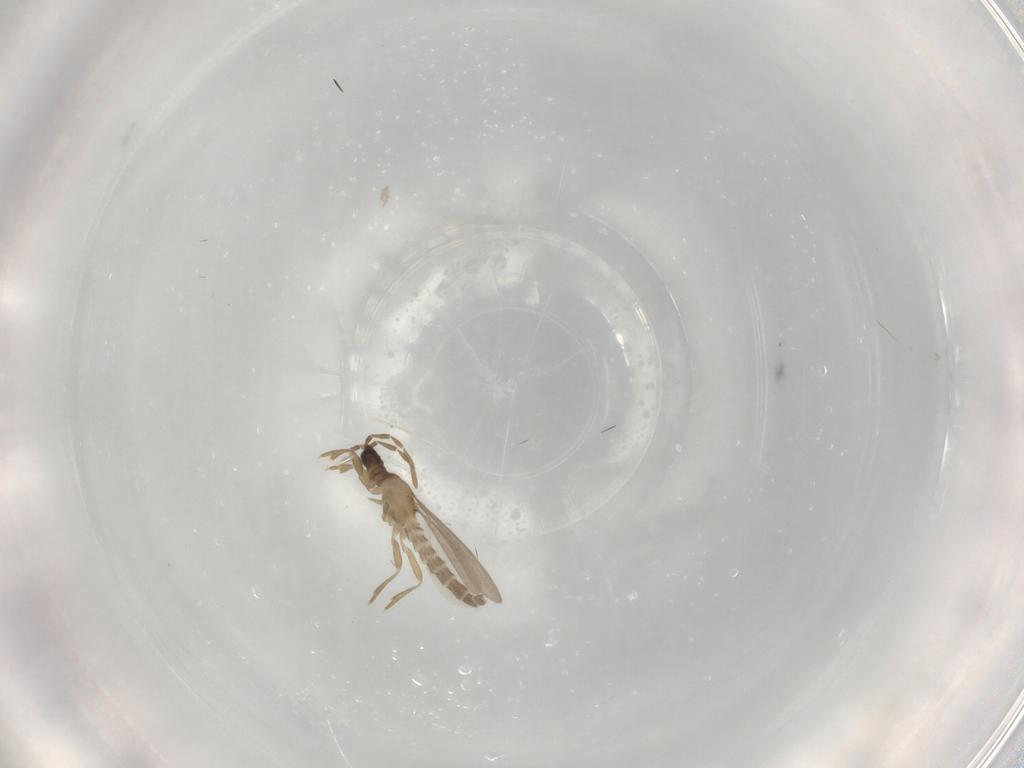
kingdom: Animalia
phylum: Arthropoda
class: Insecta
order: Hemiptera
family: Enicocephalidae
